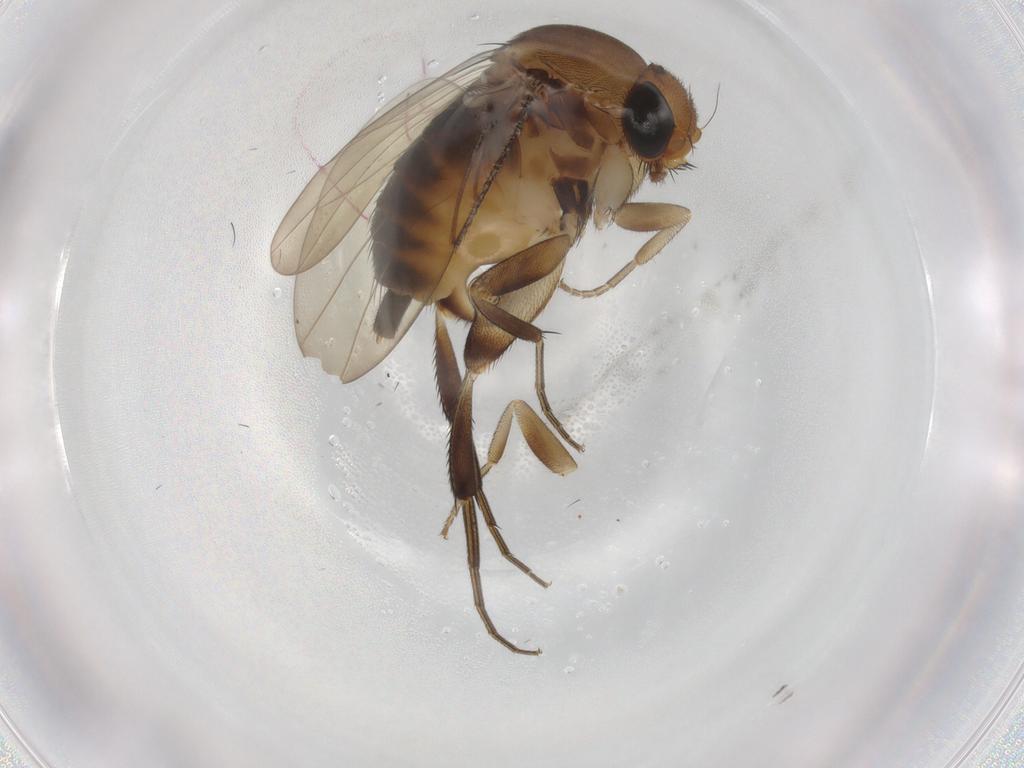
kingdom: Animalia
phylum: Arthropoda
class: Insecta
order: Diptera
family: Phoridae
